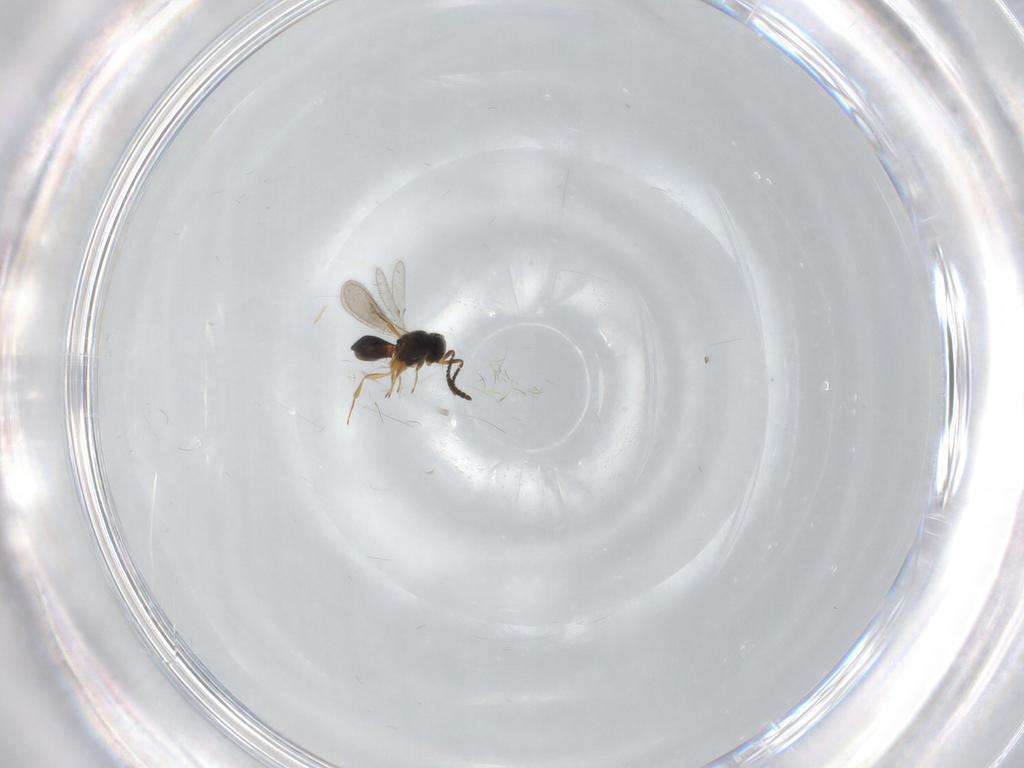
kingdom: Animalia
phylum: Arthropoda
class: Insecta
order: Hymenoptera
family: Scelionidae
